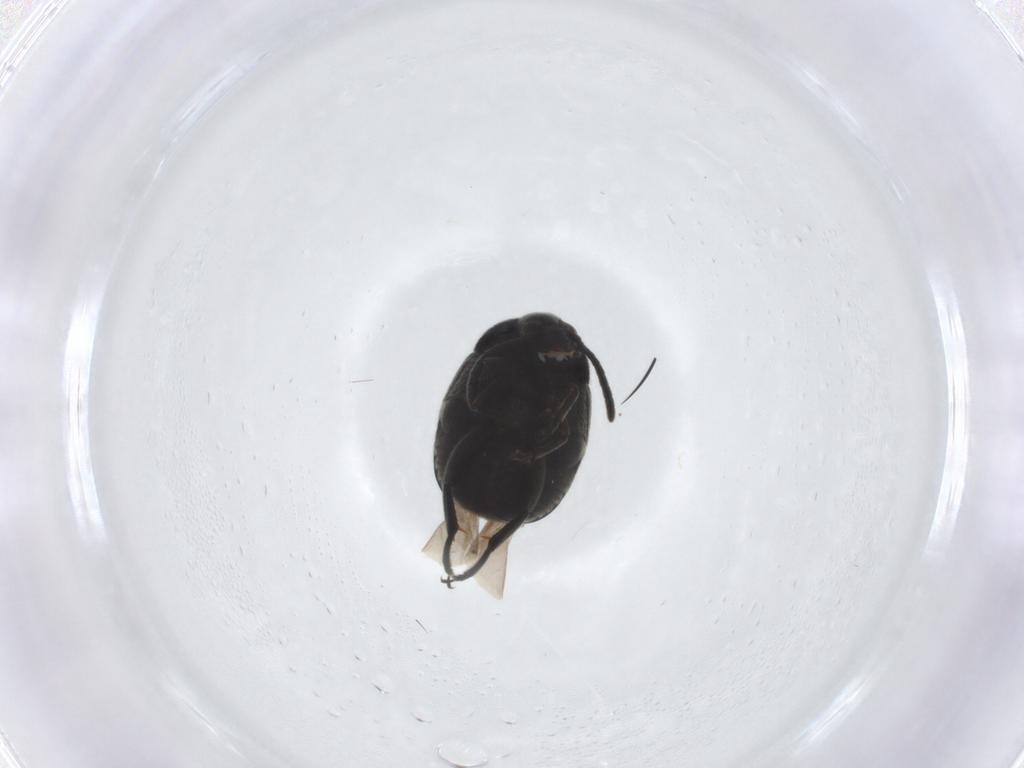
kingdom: Animalia
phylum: Arthropoda
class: Insecta
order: Coleoptera
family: Chrysomelidae
